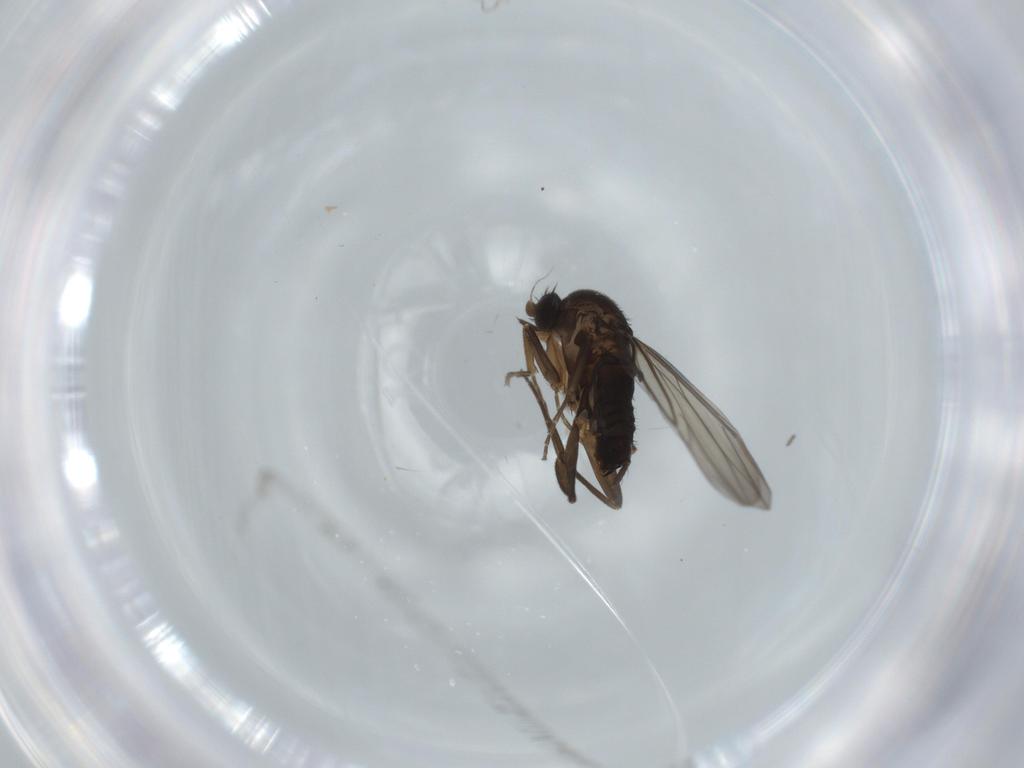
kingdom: Animalia
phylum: Arthropoda
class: Insecta
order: Diptera
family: Phoridae
